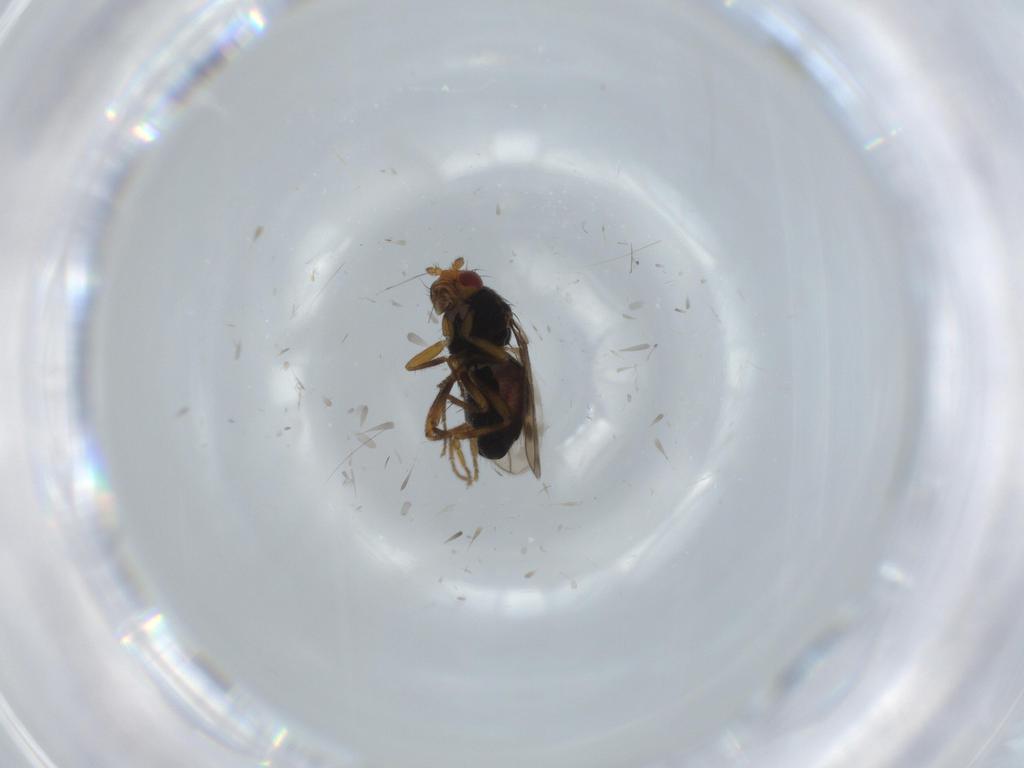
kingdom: Animalia
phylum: Arthropoda
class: Insecta
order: Diptera
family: Sphaeroceridae
